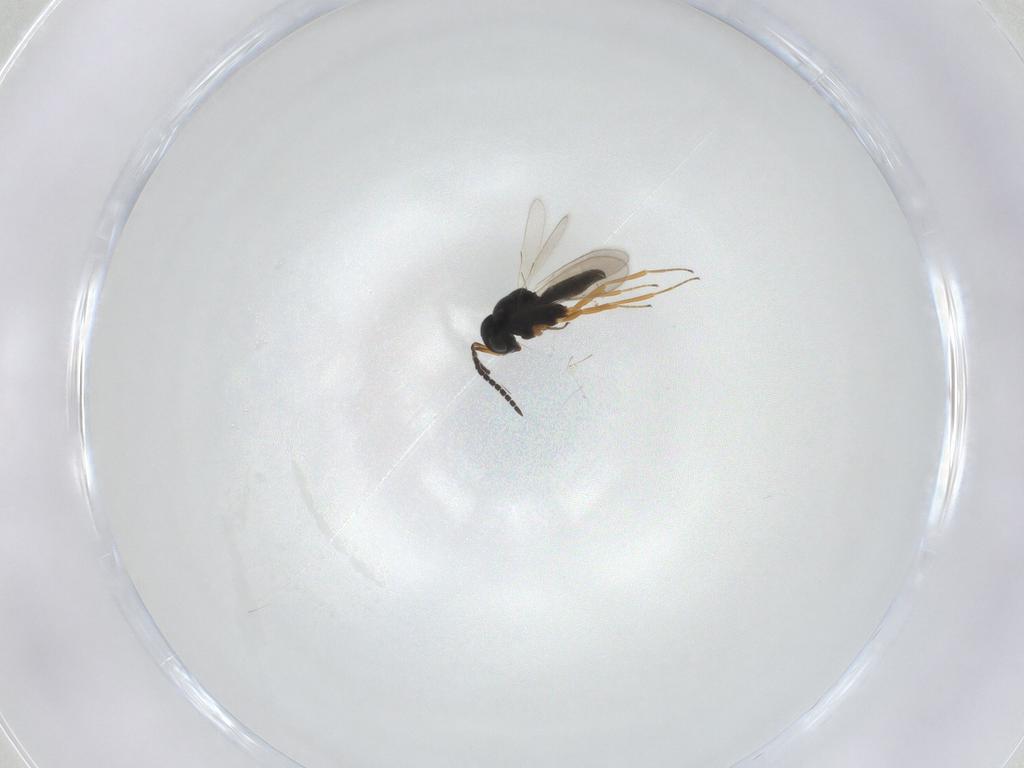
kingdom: Animalia
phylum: Arthropoda
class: Insecta
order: Hymenoptera
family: Scelionidae
